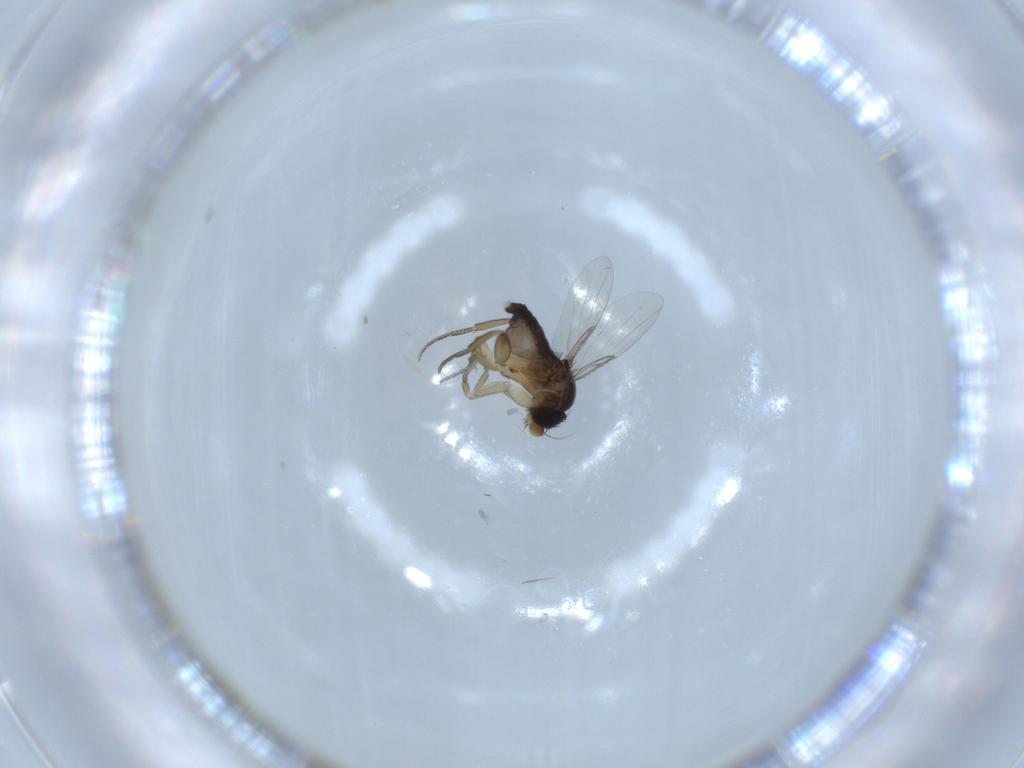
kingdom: Animalia
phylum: Arthropoda
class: Insecta
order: Diptera
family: Phoridae
